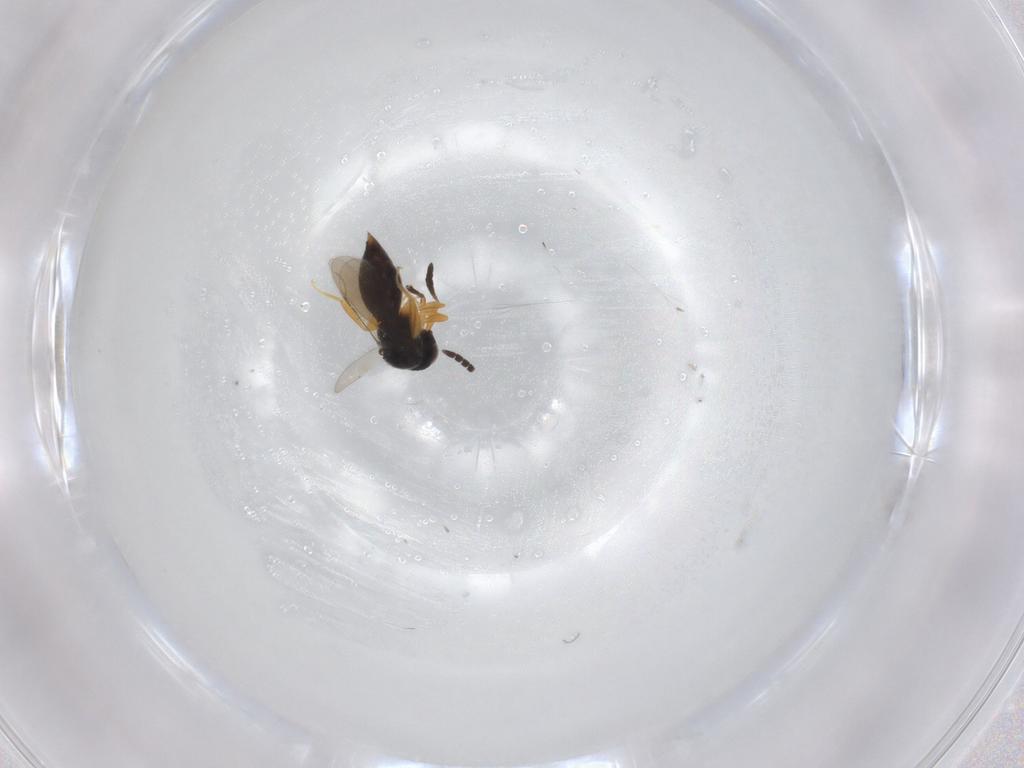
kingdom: Animalia
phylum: Arthropoda
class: Insecta
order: Hymenoptera
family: Scelionidae
